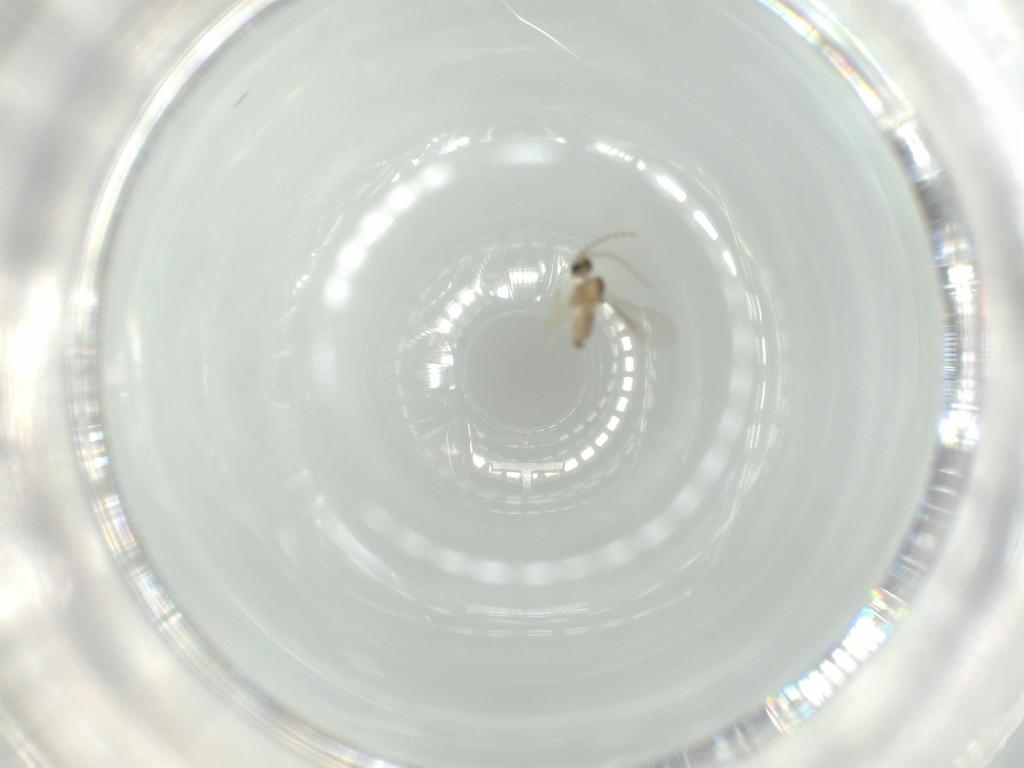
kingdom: Animalia
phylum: Arthropoda
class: Insecta
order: Diptera
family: Cecidomyiidae
